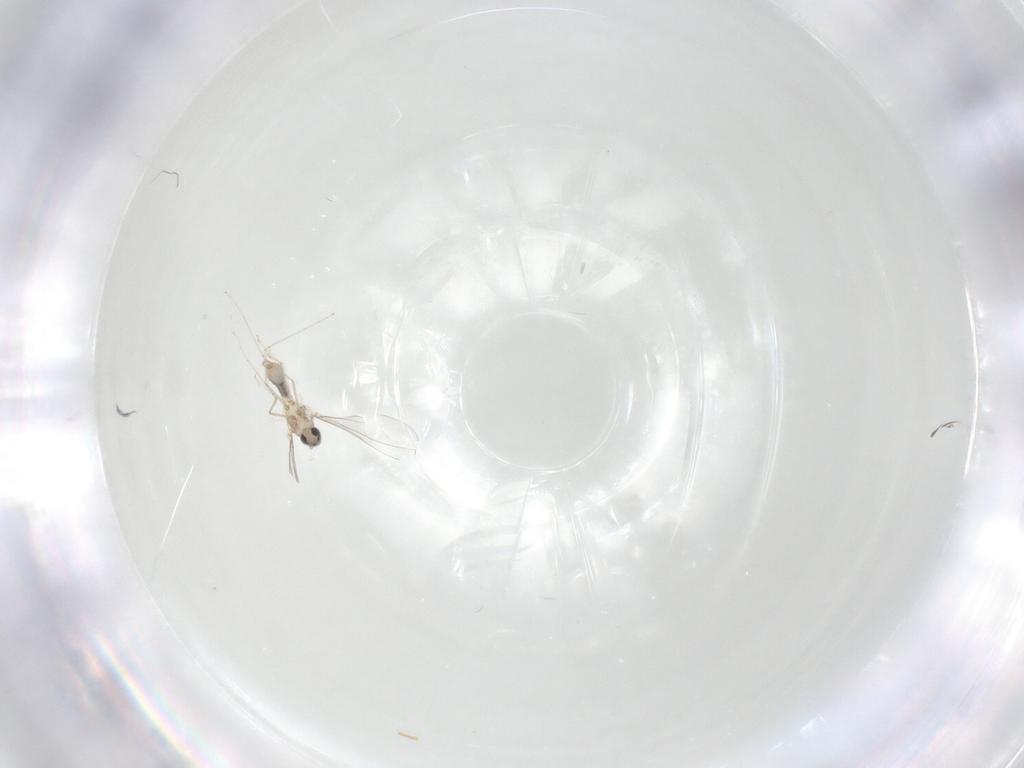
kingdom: Animalia
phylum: Arthropoda
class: Insecta
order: Diptera
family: Cecidomyiidae
